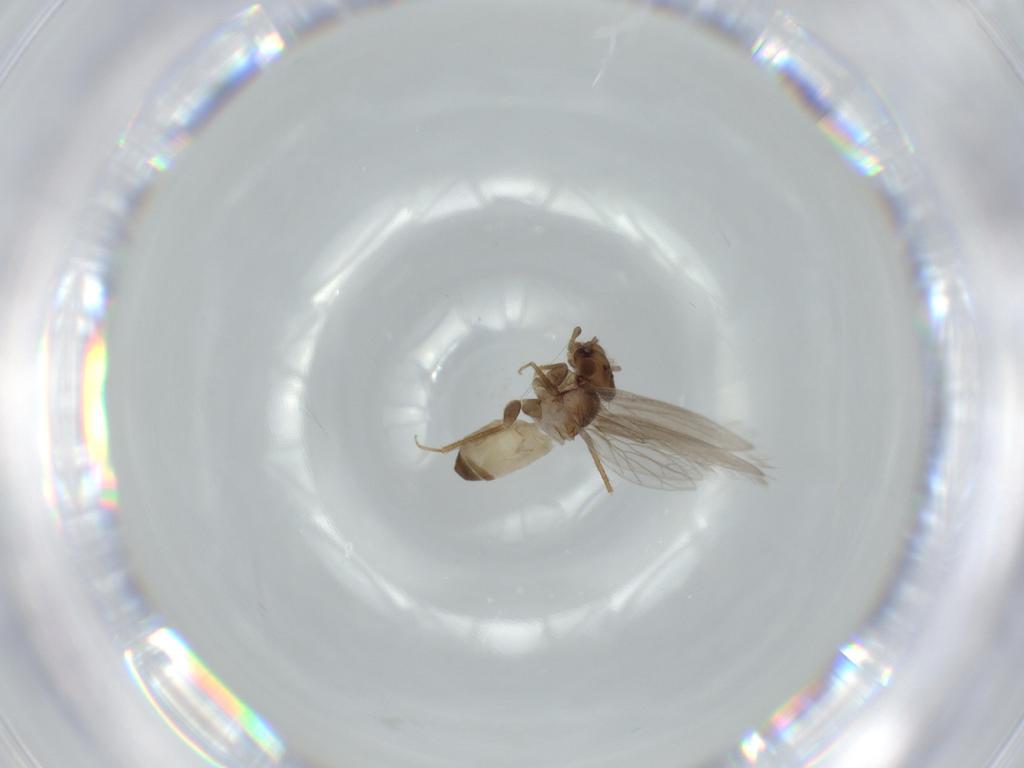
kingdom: Animalia
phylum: Arthropoda
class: Insecta
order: Psocodea
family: Lepidopsocidae
